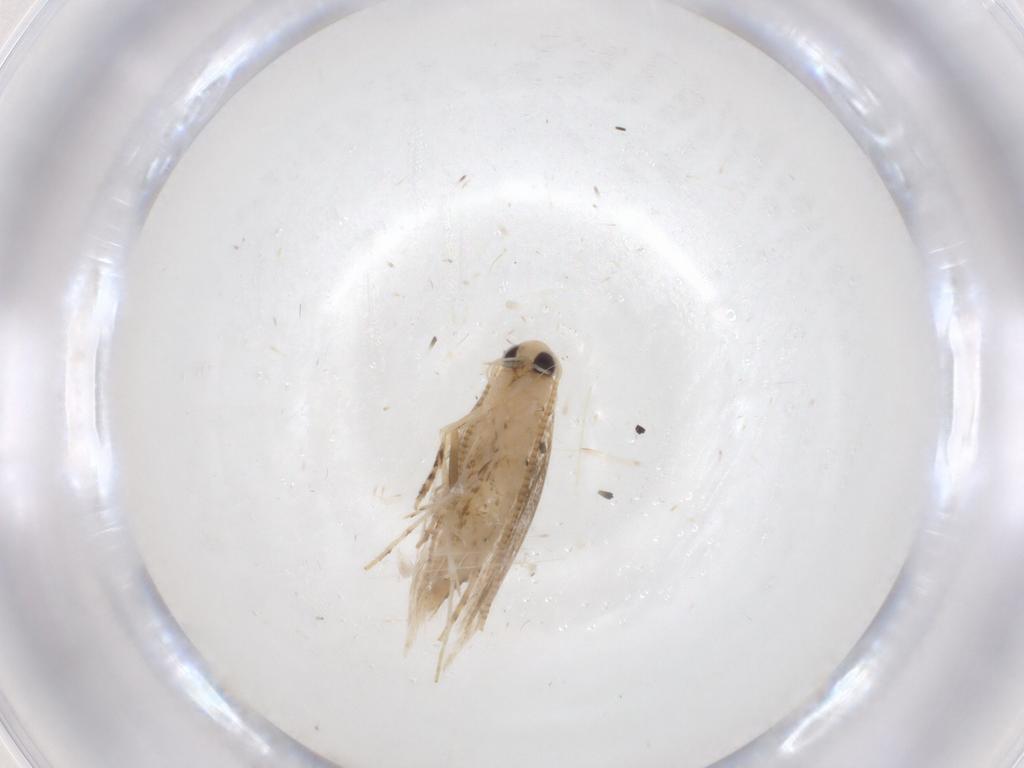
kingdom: Animalia
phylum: Arthropoda
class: Insecta
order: Lepidoptera
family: Gracillariidae
